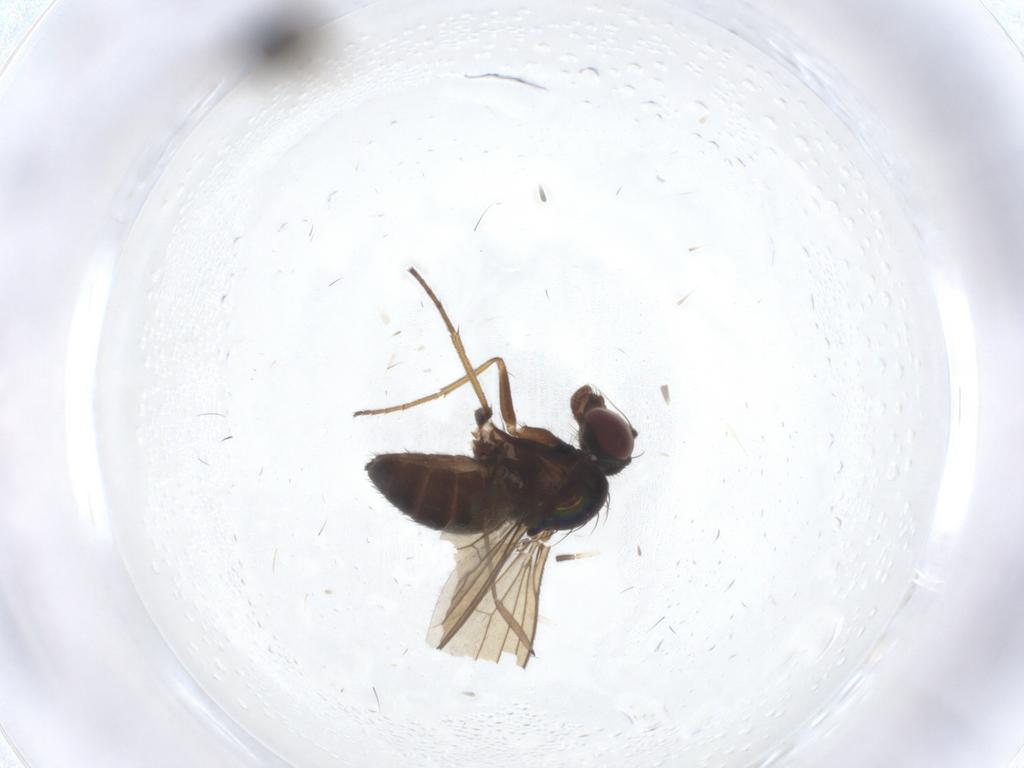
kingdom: Animalia
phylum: Arthropoda
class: Insecta
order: Diptera
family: Dolichopodidae
